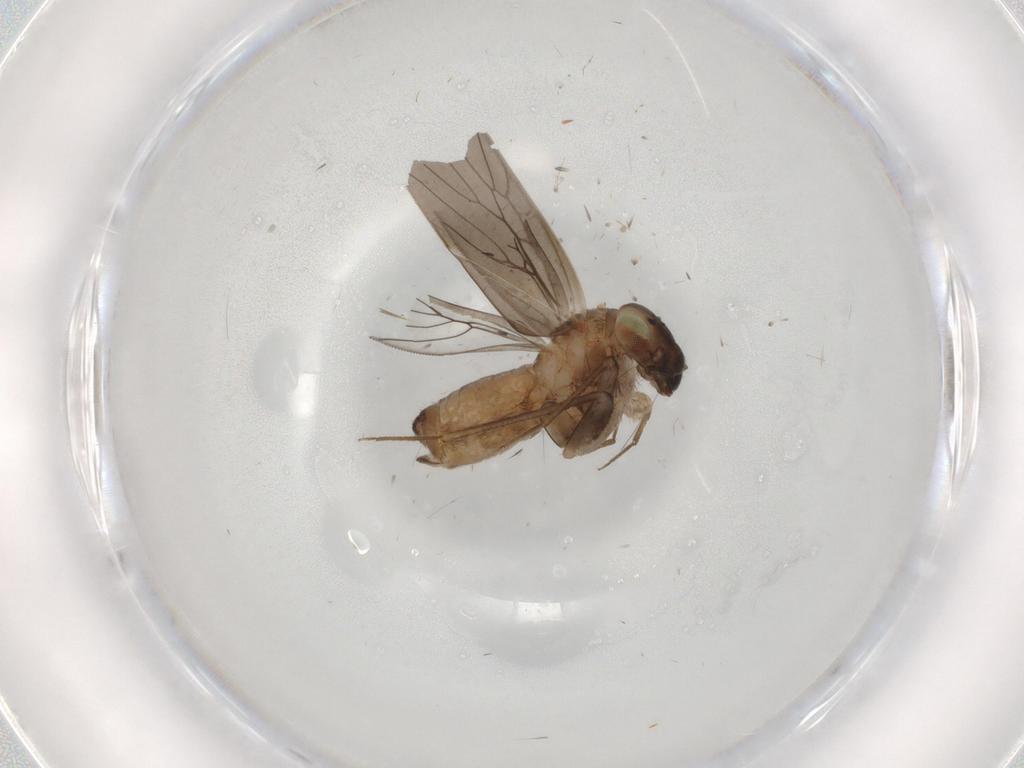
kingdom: Animalia
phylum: Arthropoda
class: Insecta
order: Psocodea
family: Lepidopsocidae
